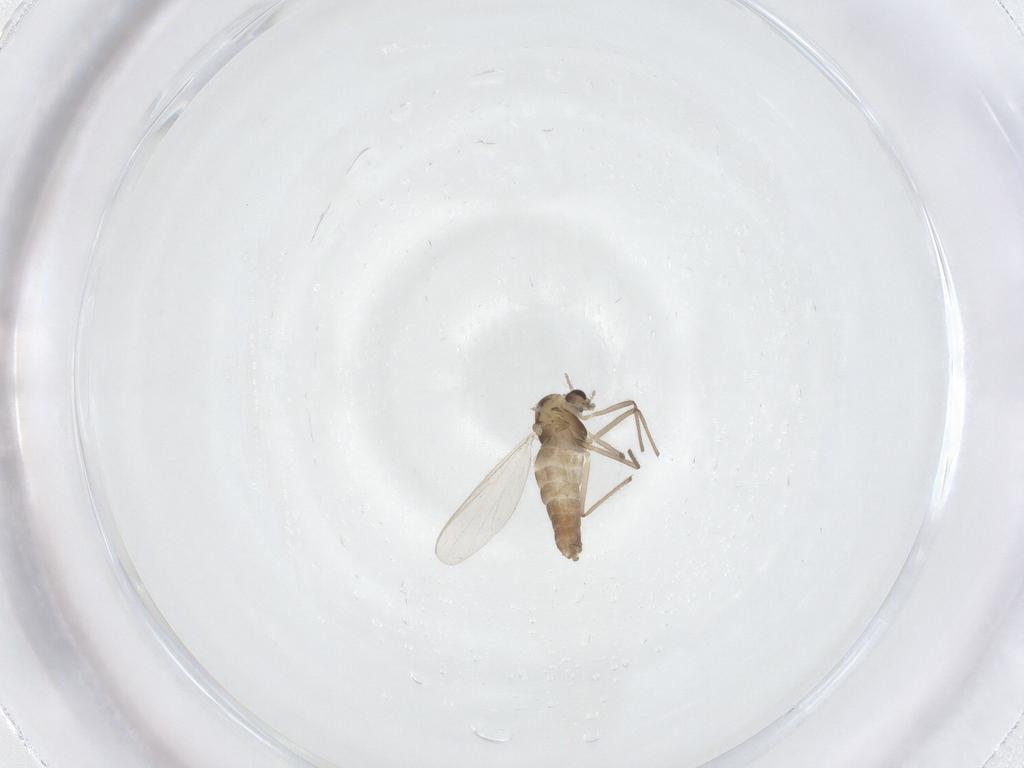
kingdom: Animalia
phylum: Arthropoda
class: Insecta
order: Diptera
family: Chironomidae
